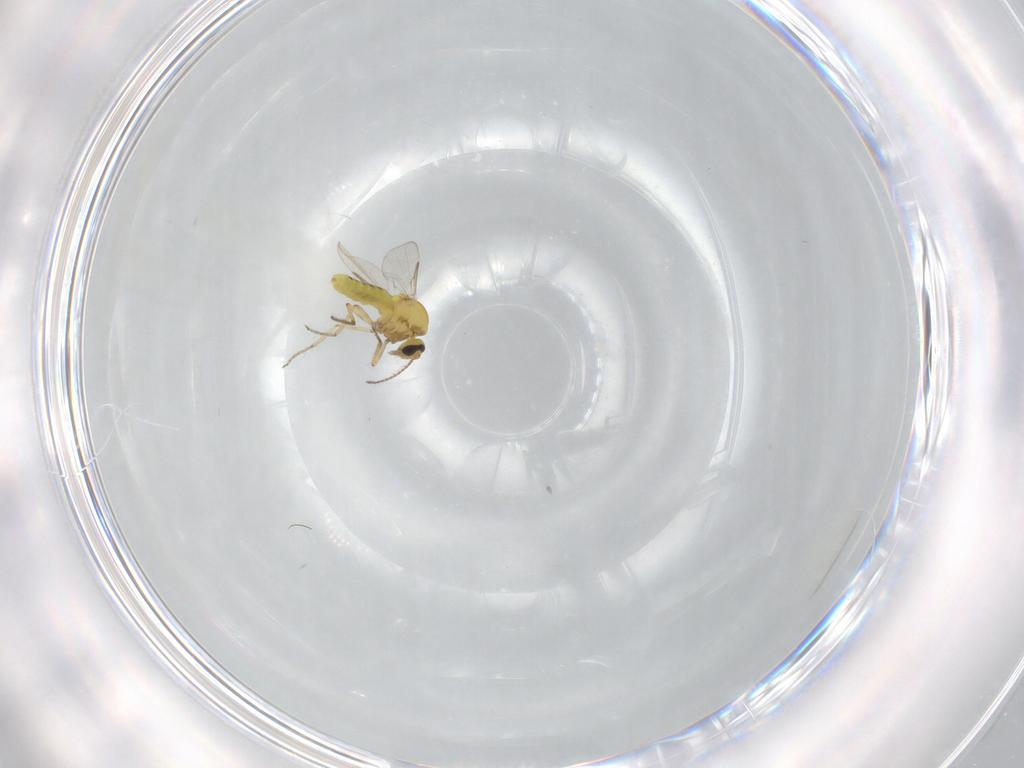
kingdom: Animalia
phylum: Arthropoda
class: Insecta
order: Diptera
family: Ceratopogonidae
